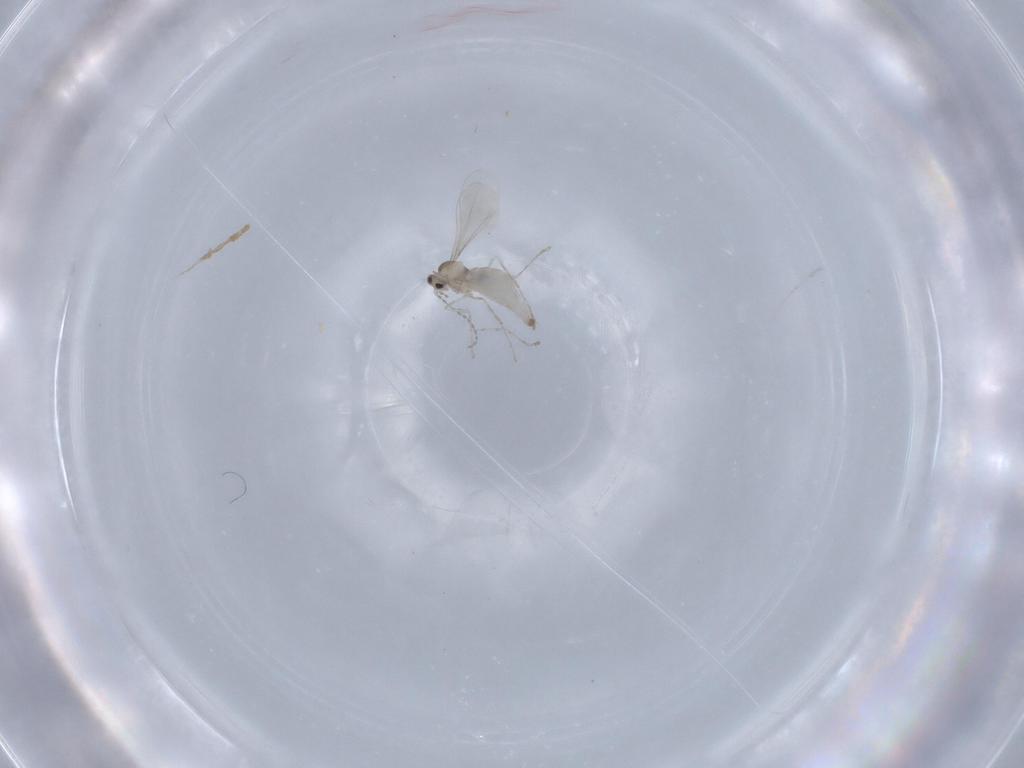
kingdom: Animalia
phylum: Arthropoda
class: Insecta
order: Diptera
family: Cecidomyiidae
